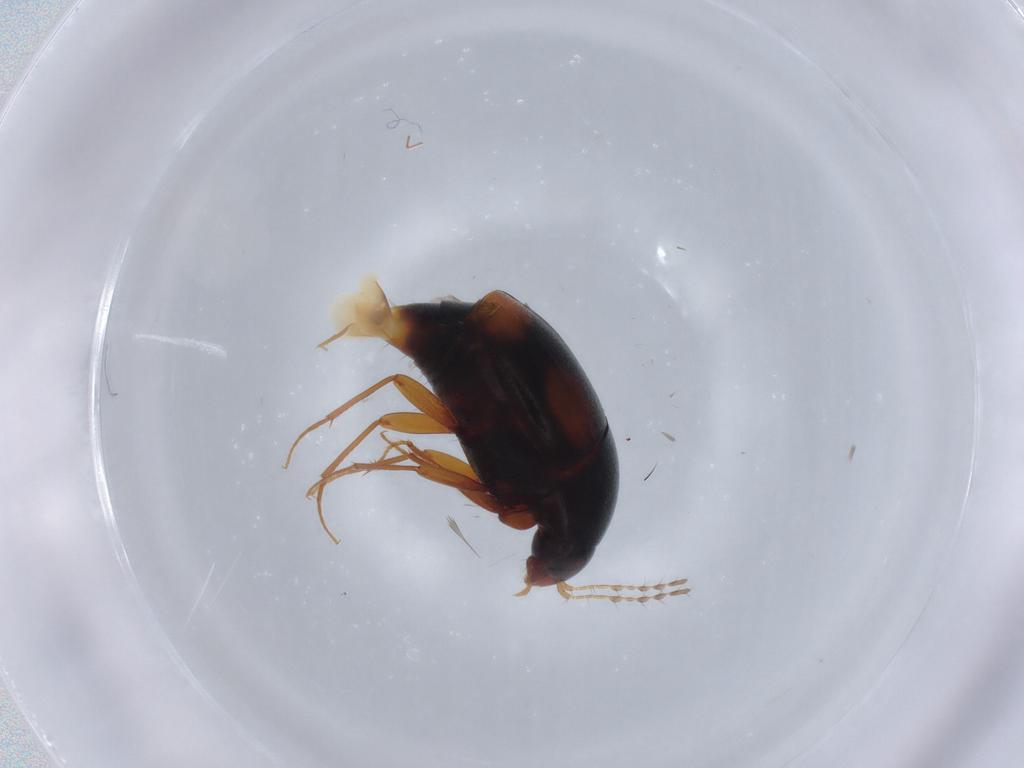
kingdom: Animalia
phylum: Arthropoda
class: Insecta
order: Coleoptera
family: Staphylinidae
